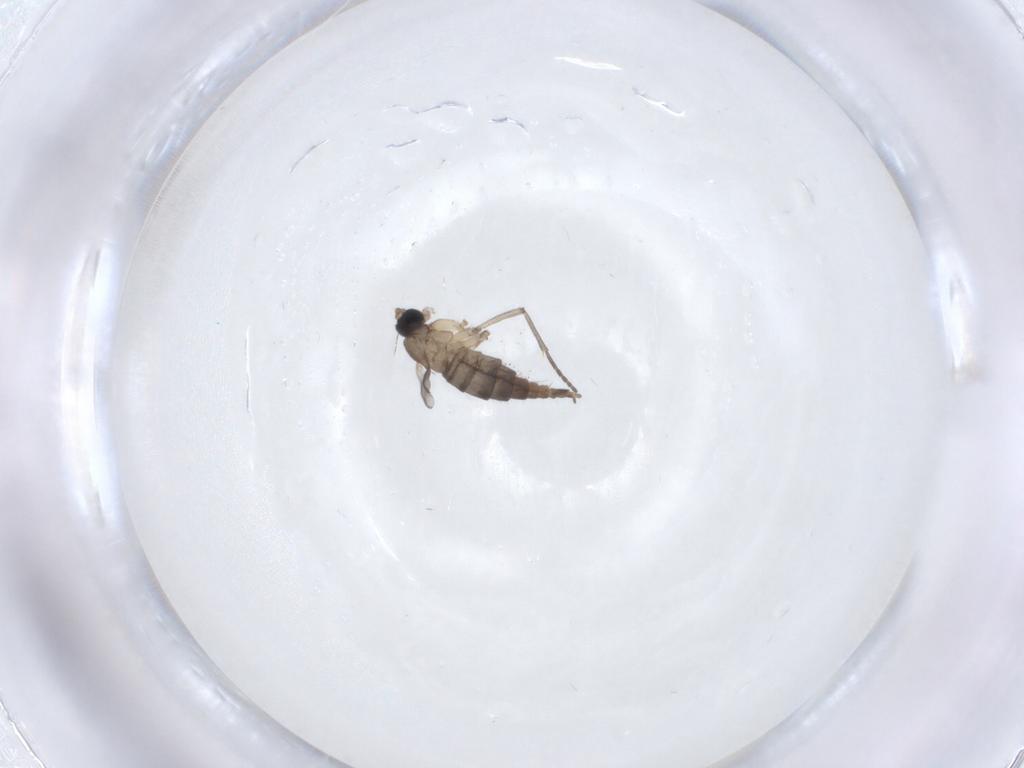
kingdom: Animalia
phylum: Arthropoda
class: Insecta
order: Diptera
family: Sciaridae
